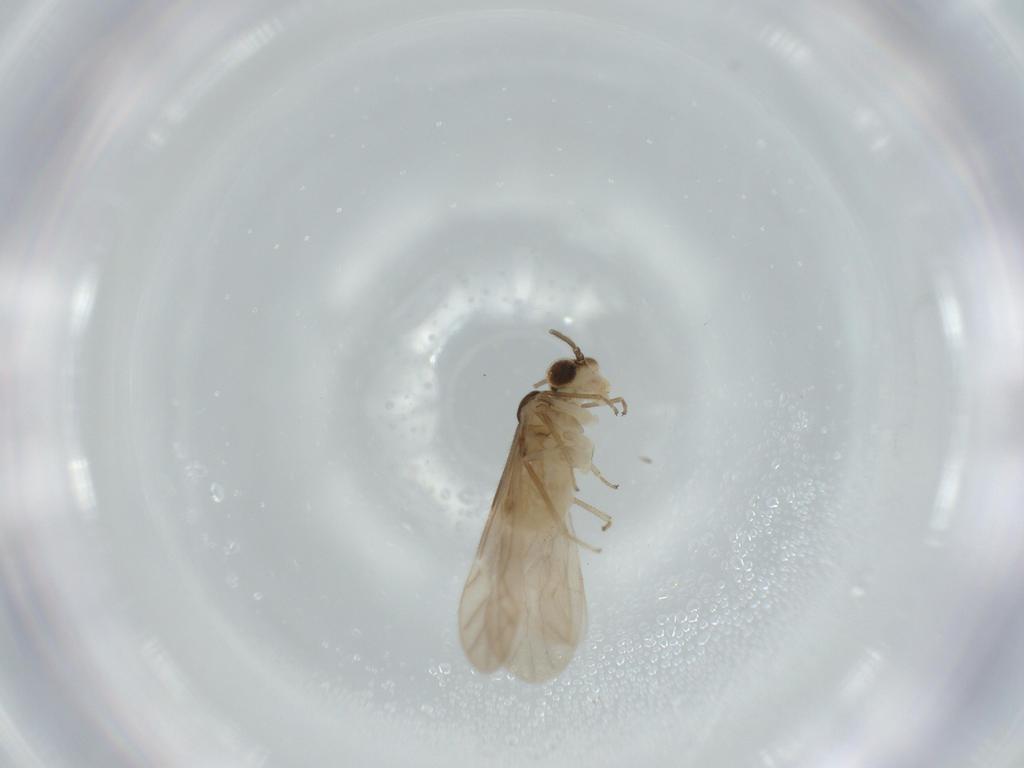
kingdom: Animalia
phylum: Arthropoda
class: Insecta
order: Psocodea
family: Caeciliusidae
